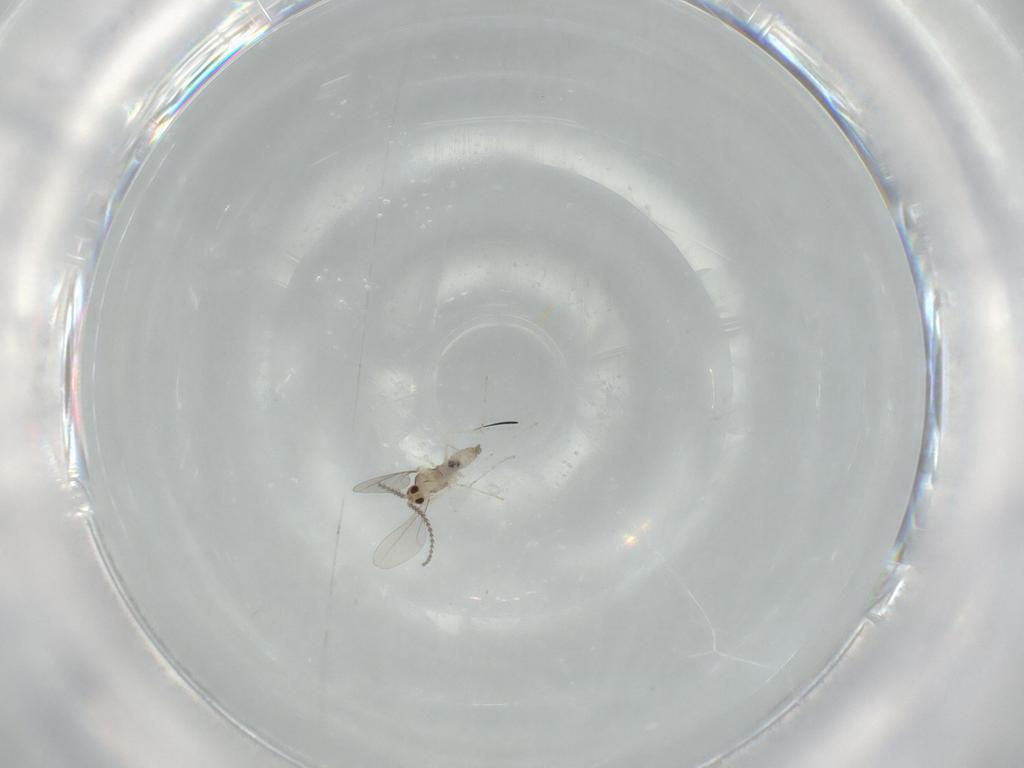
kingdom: Animalia
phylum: Arthropoda
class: Insecta
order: Diptera
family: Cecidomyiidae
